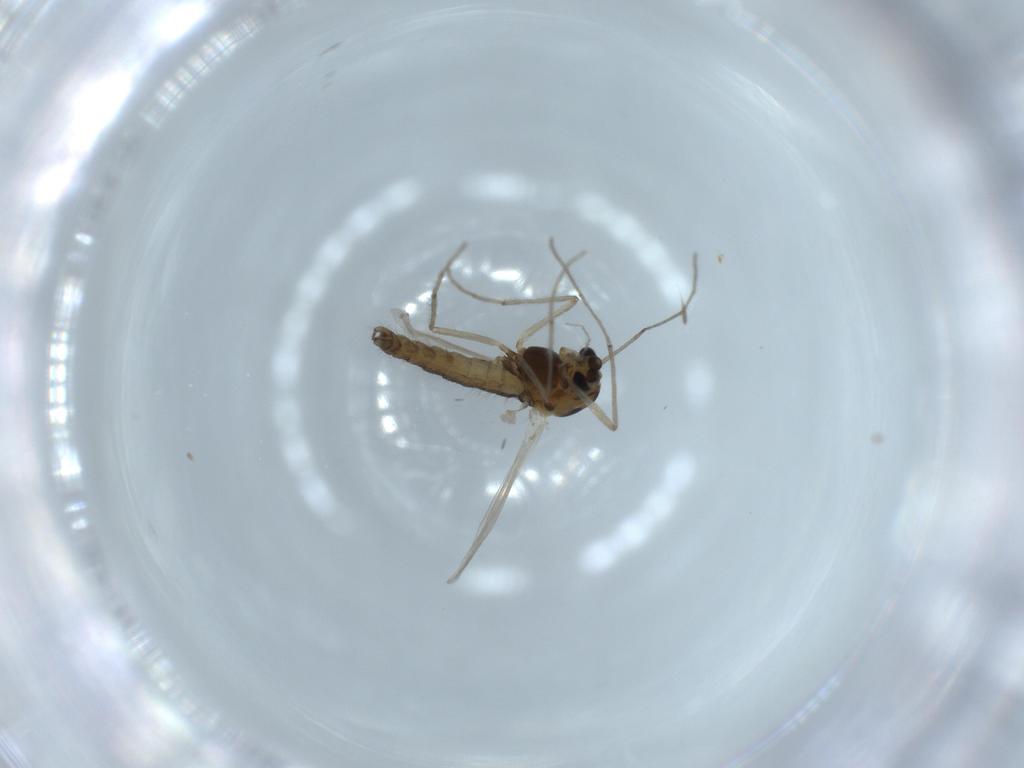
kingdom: Animalia
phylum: Arthropoda
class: Insecta
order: Diptera
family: Chironomidae
